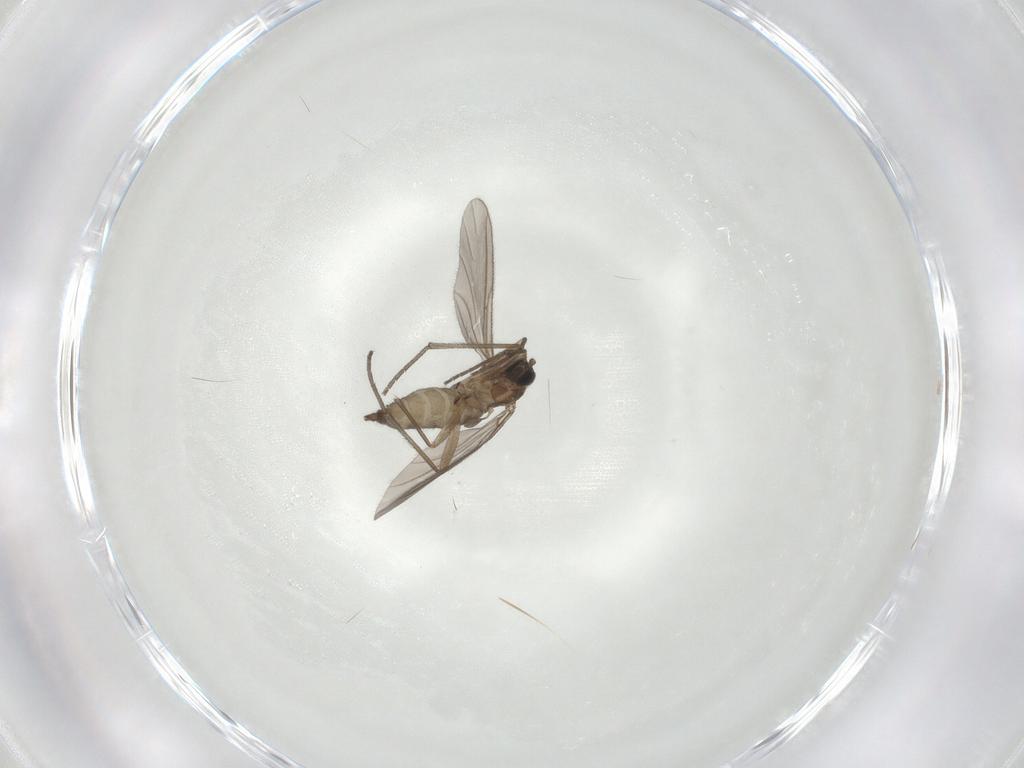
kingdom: Animalia
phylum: Arthropoda
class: Insecta
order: Diptera
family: Sciaridae
